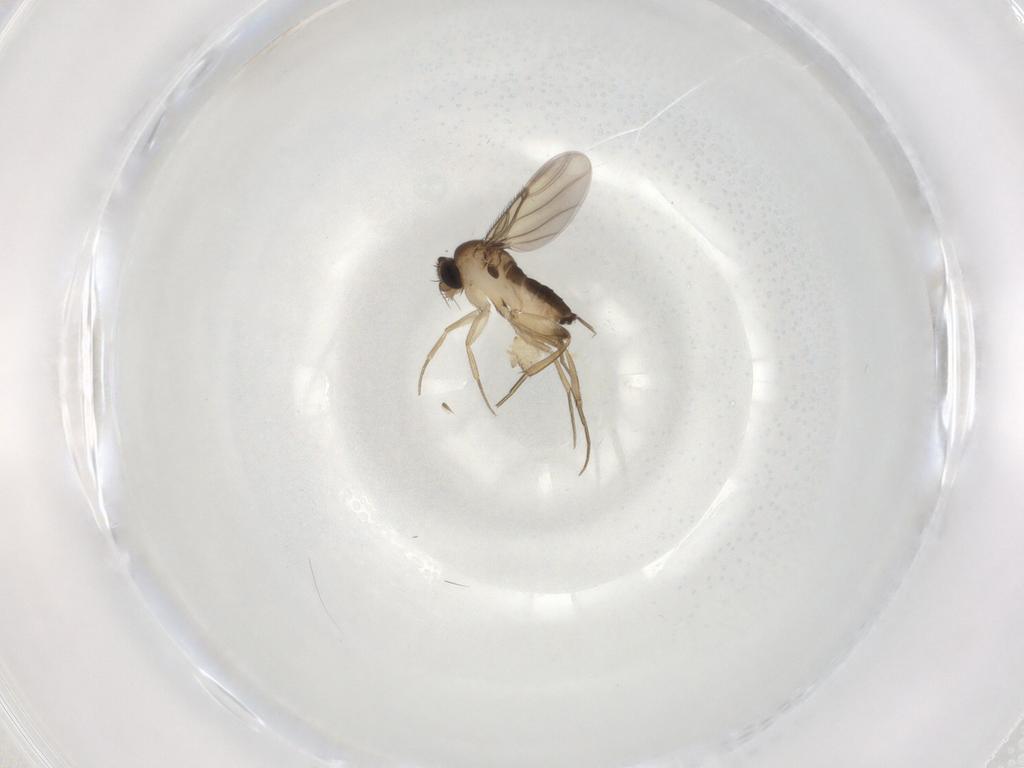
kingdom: Animalia
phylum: Arthropoda
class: Insecta
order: Diptera
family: Phoridae
